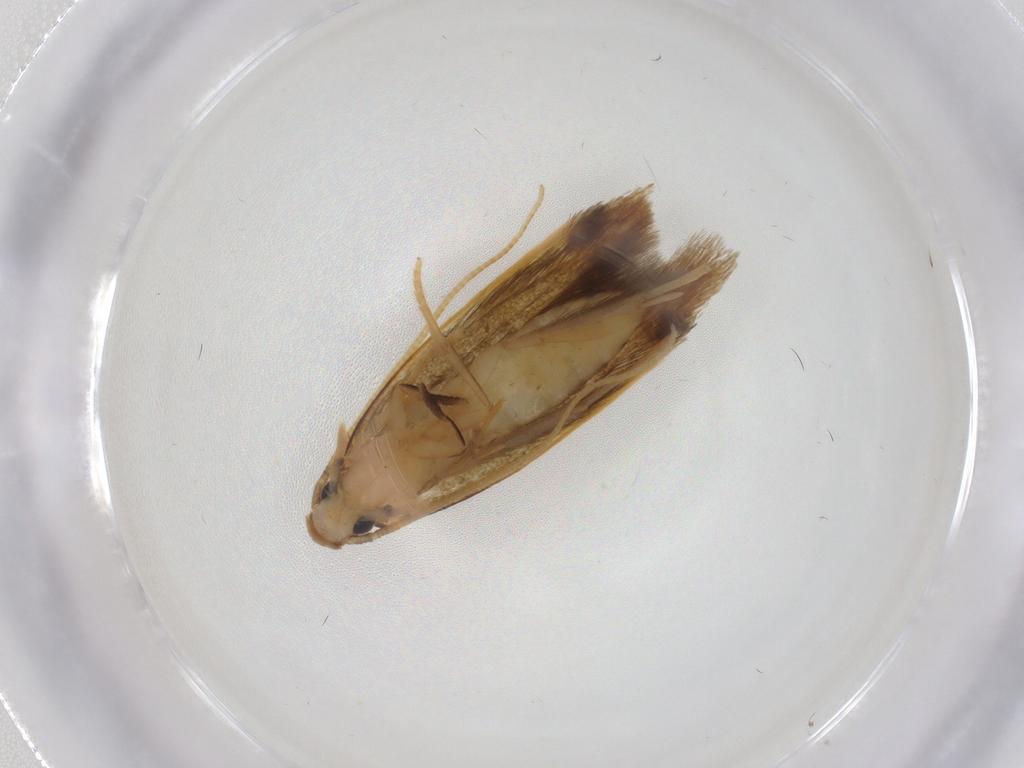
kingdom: Animalia
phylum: Arthropoda
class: Insecta
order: Lepidoptera
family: Tineidae
